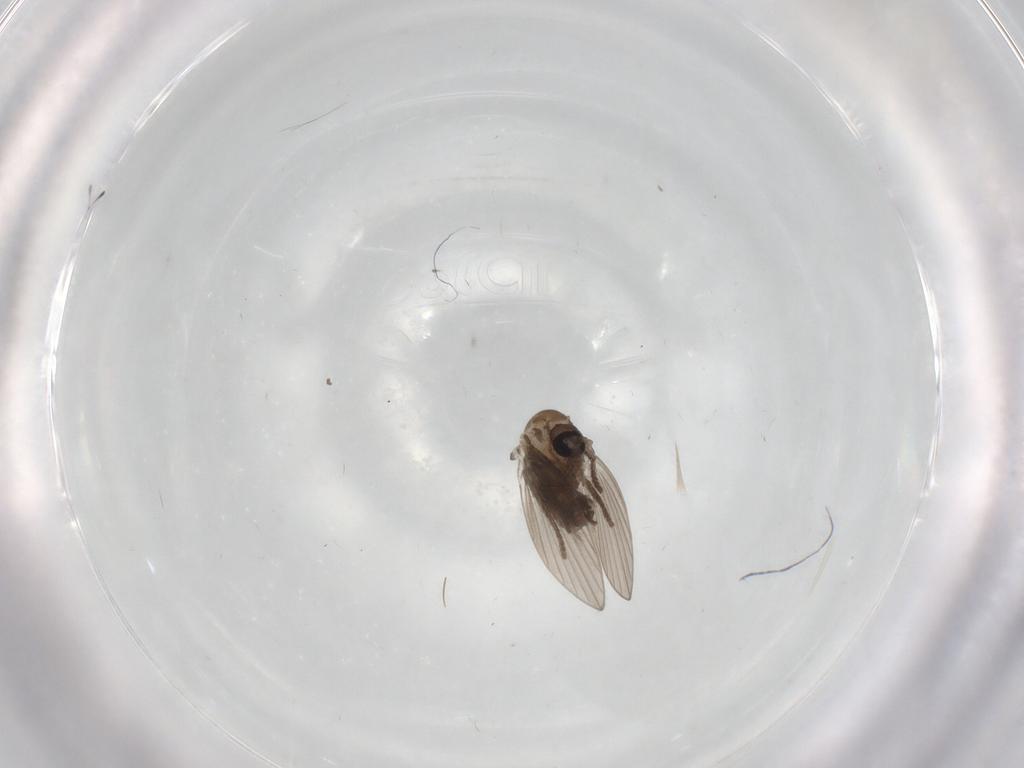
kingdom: Animalia
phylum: Arthropoda
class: Insecta
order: Diptera
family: Psychodidae
